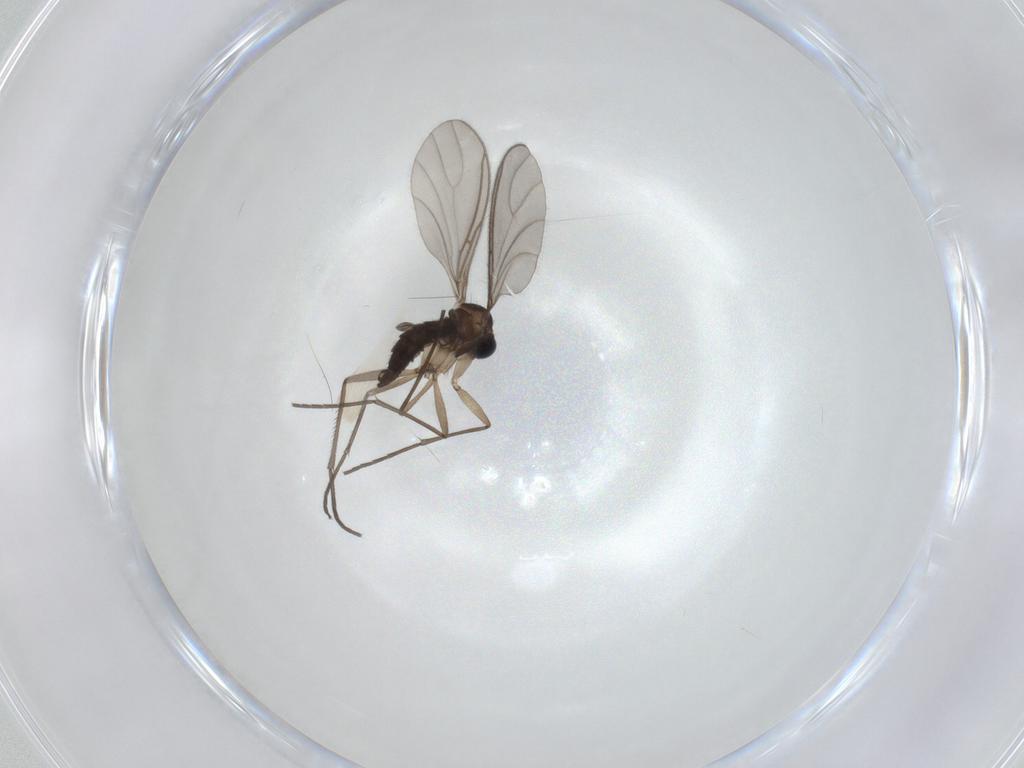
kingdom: Animalia
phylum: Arthropoda
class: Insecta
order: Diptera
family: Sciaridae
